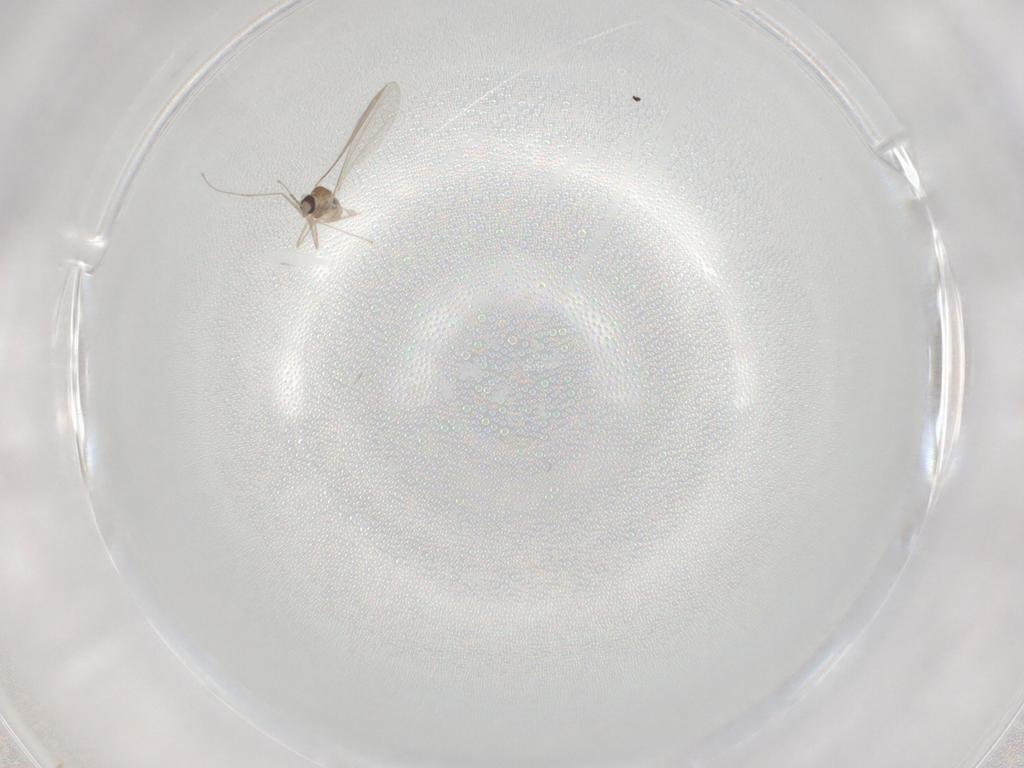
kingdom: Animalia
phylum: Arthropoda
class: Insecta
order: Diptera
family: Cecidomyiidae
